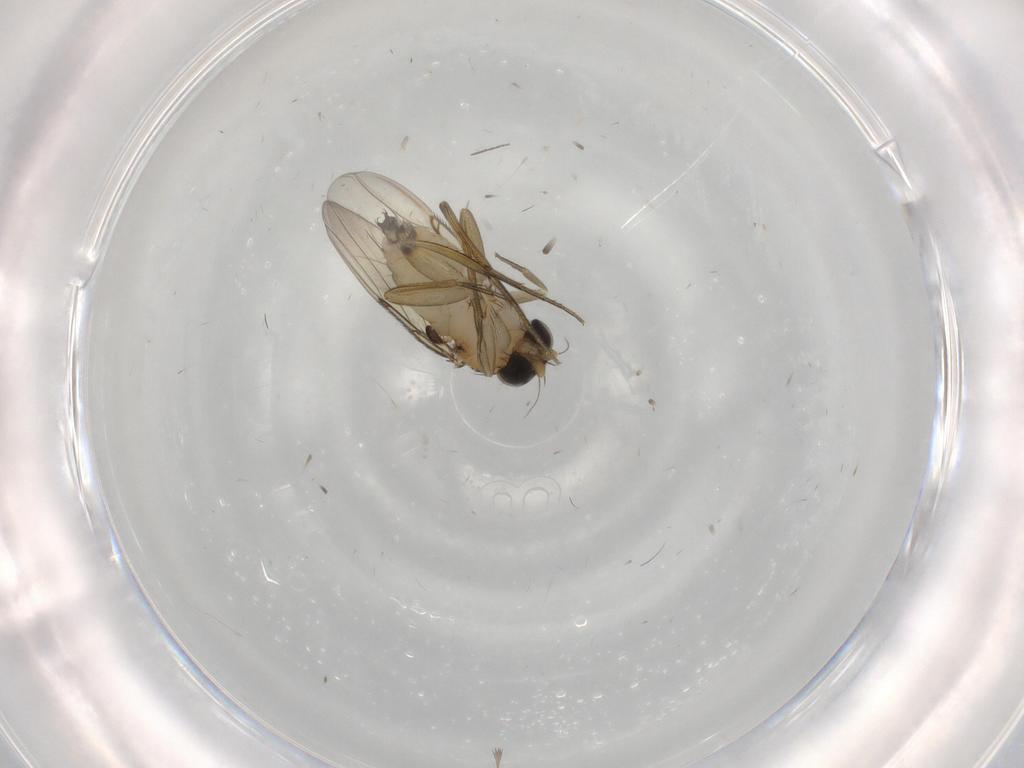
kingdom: Animalia
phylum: Arthropoda
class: Insecta
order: Diptera
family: Phoridae
